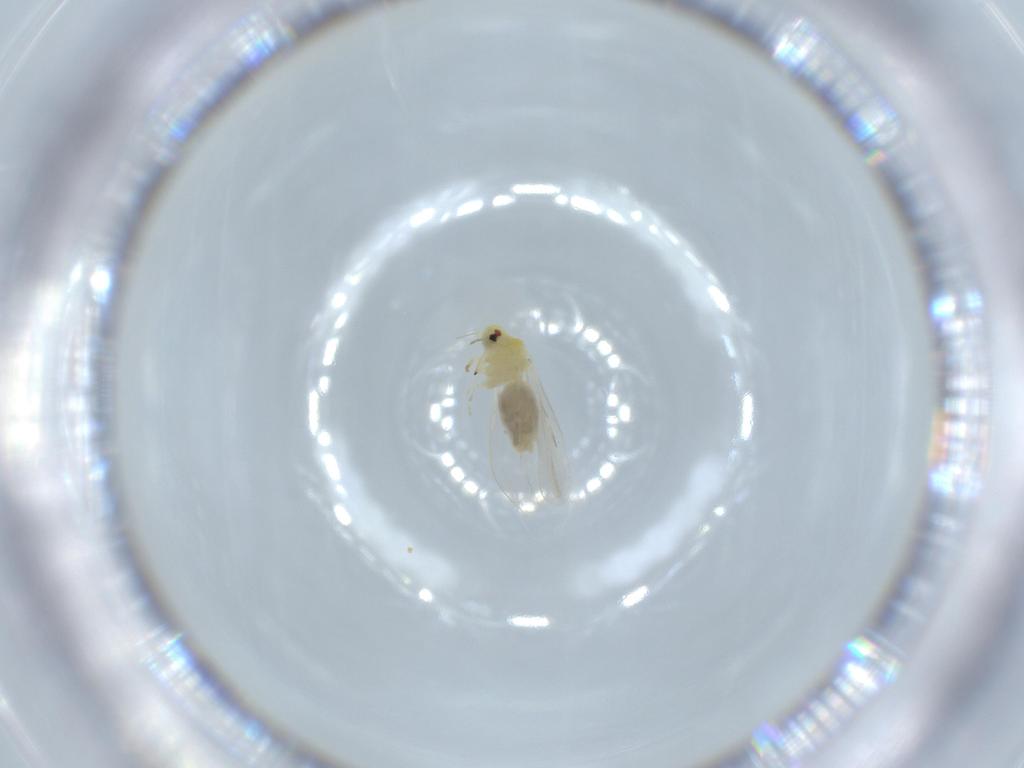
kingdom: Animalia
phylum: Arthropoda
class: Insecta
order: Hemiptera
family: Aleyrodidae
